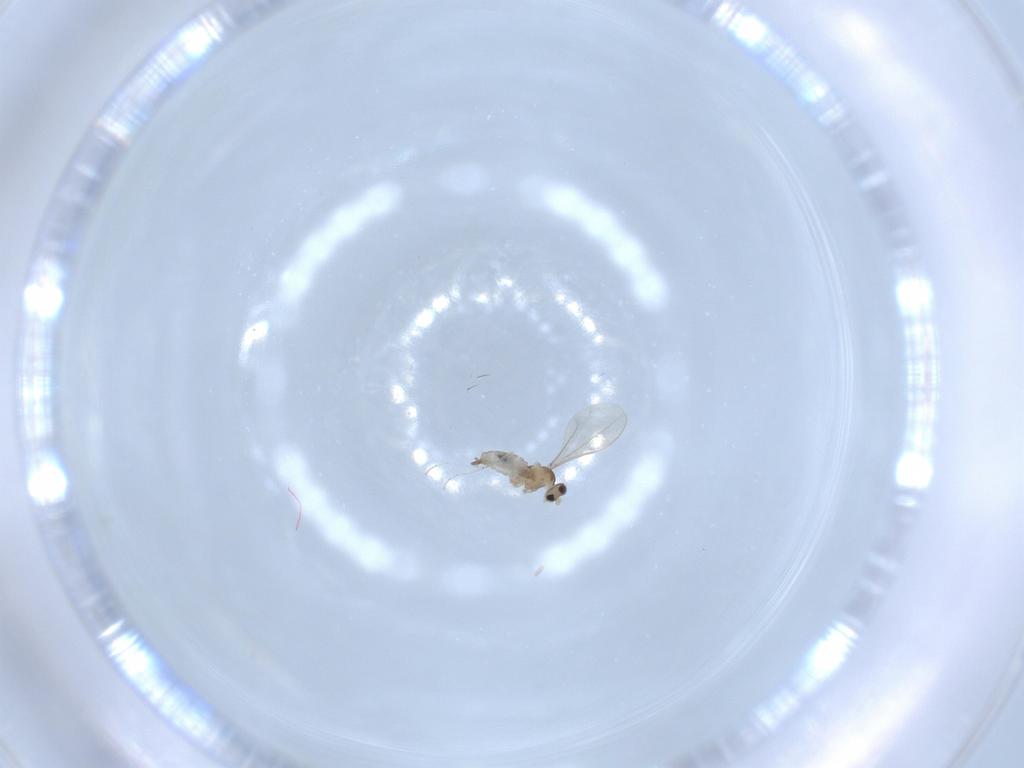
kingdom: Animalia
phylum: Arthropoda
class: Insecta
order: Diptera
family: Cecidomyiidae
